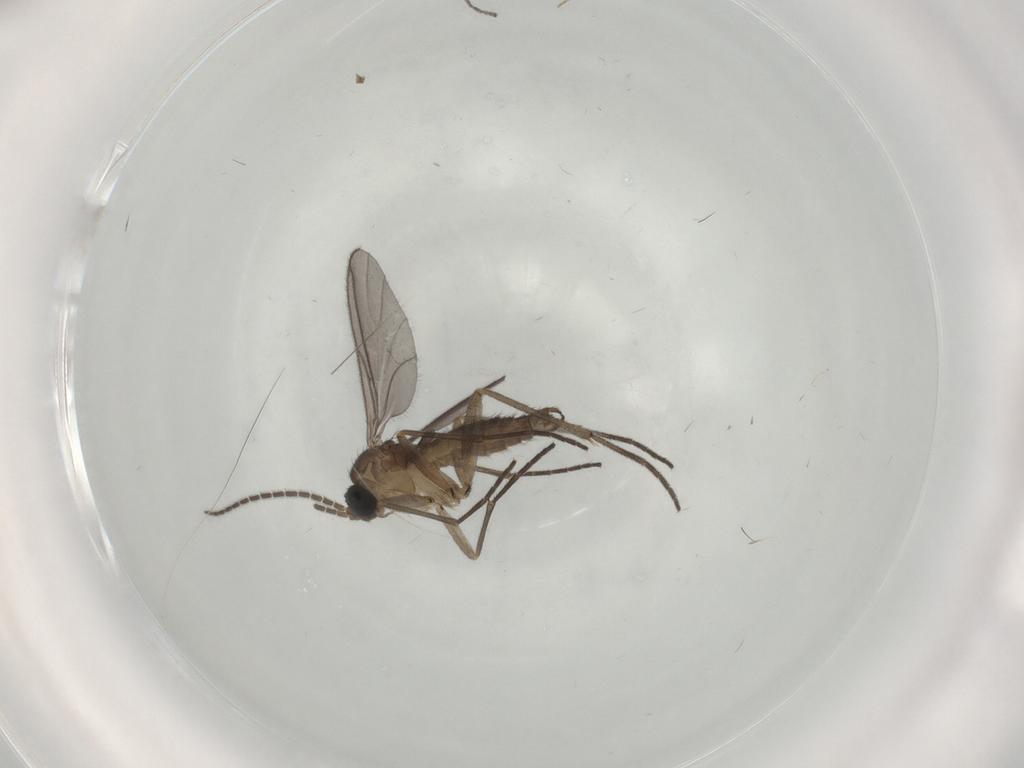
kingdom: Animalia
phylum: Arthropoda
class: Insecta
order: Diptera
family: Sciaridae
